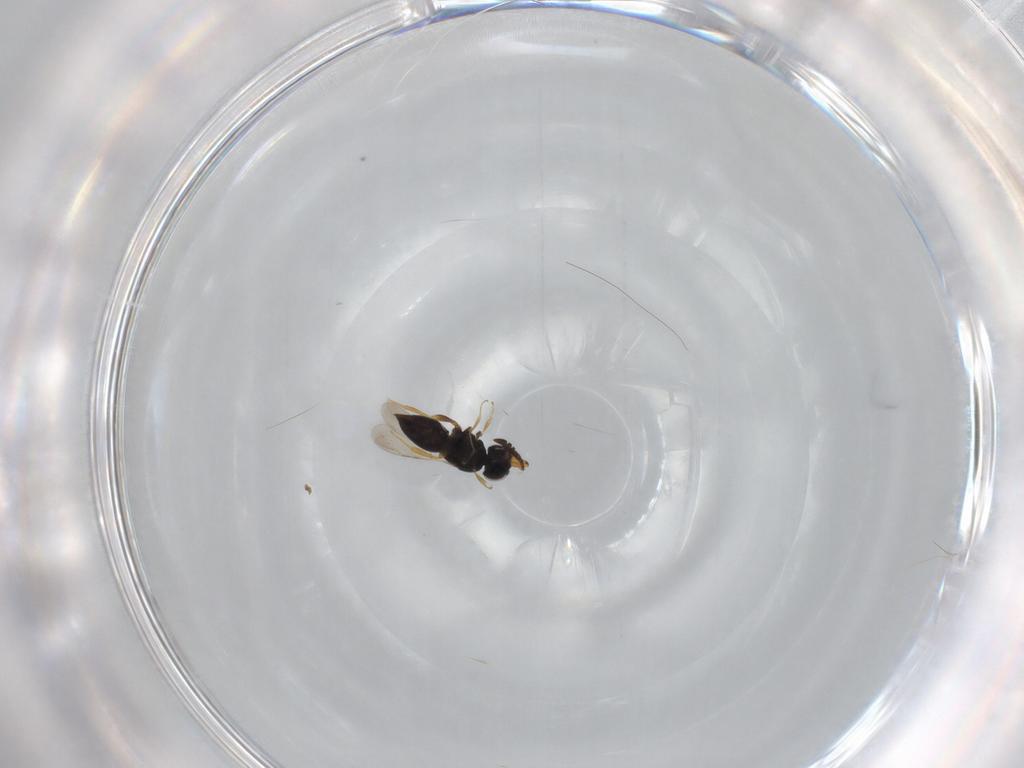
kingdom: Animalia
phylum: Arthropoda
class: Insecta
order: Hymenoptera
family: Ceraphronidae
